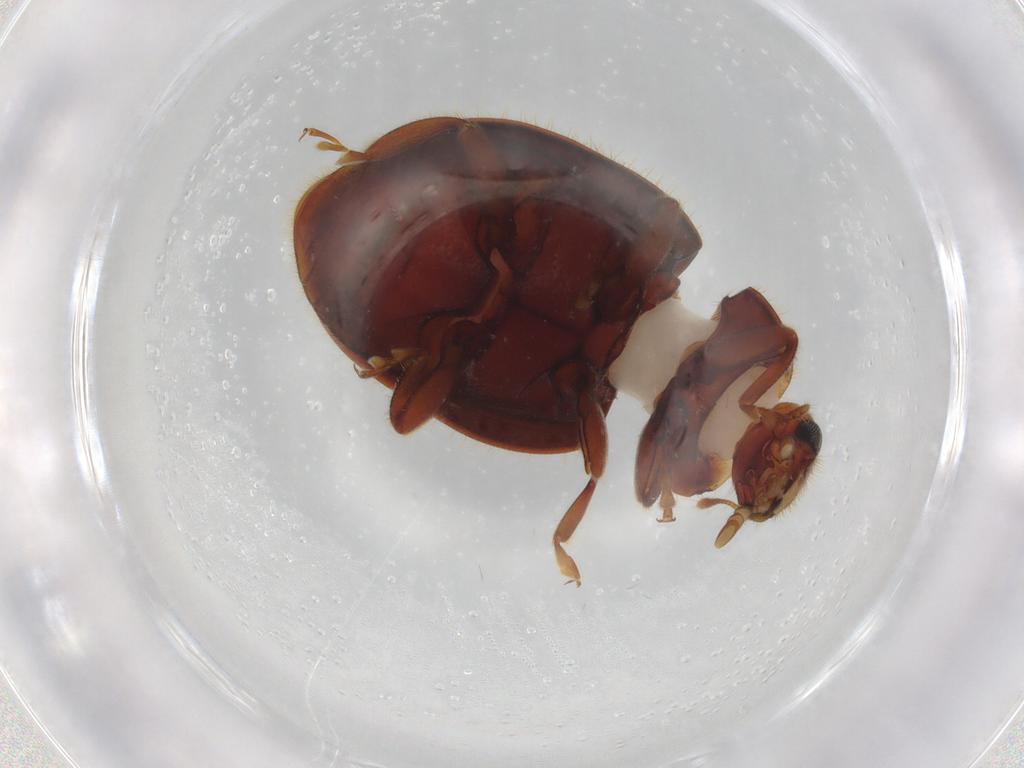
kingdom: Animalia
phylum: Arthropoda
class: Insecta
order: Coleoptera
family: Coccinellidae
